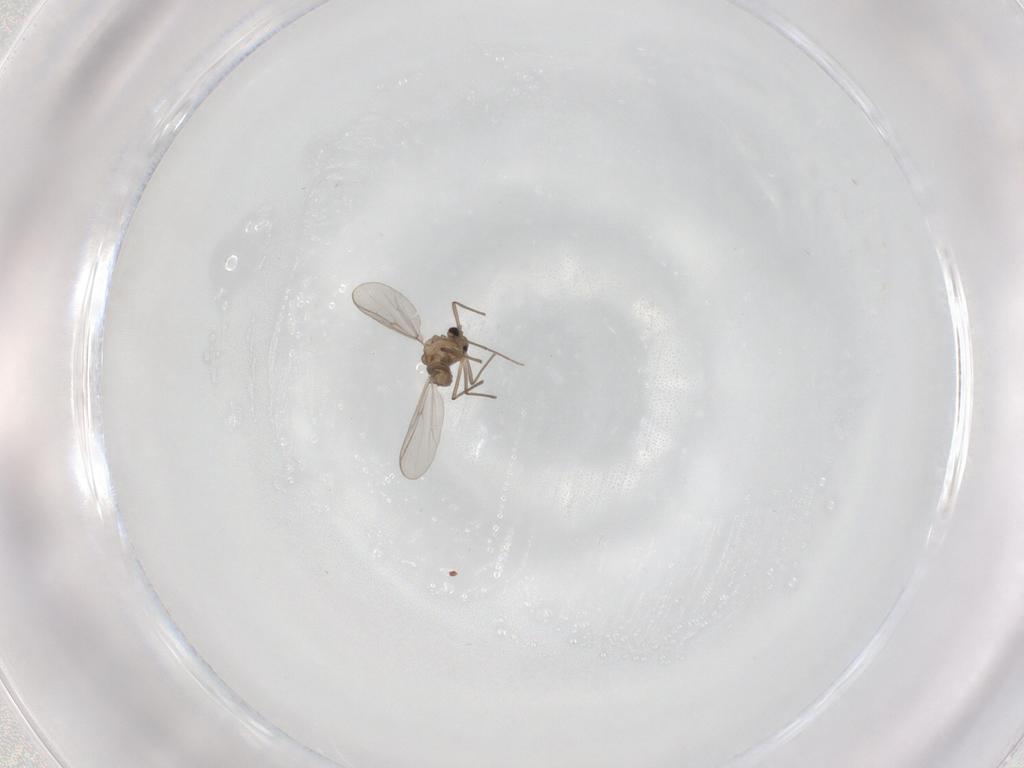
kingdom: Animalia
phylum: Arthropoda
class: Insecta
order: Diptera
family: Chironomidae
